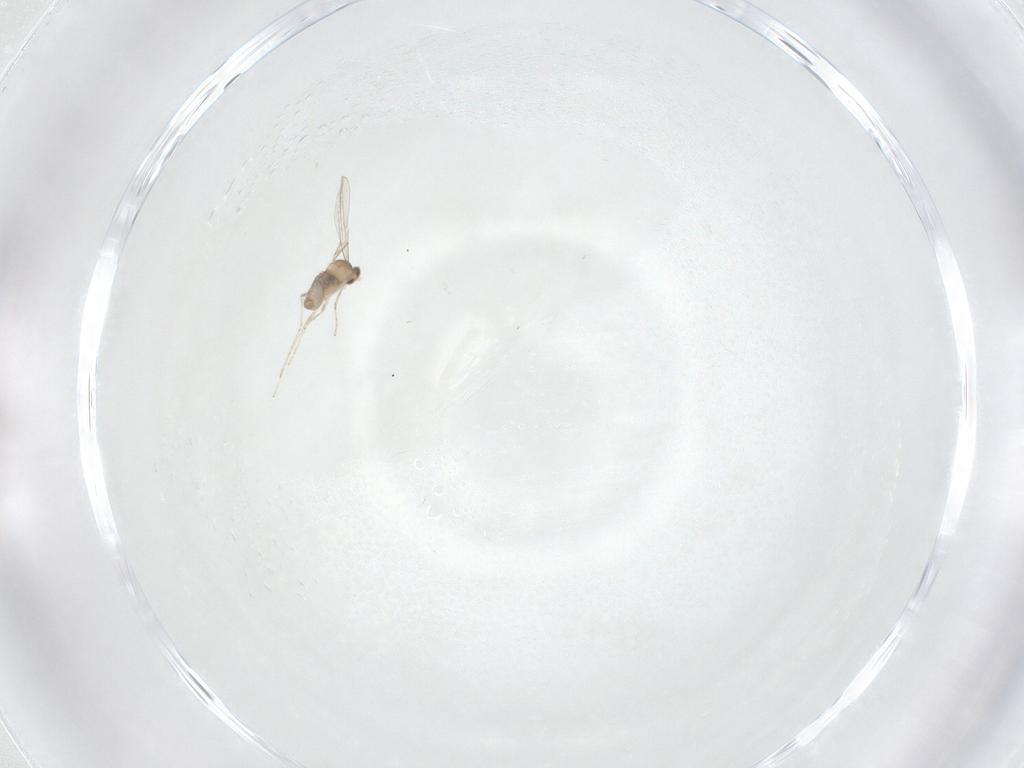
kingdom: Animalia
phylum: Arthropoda
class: Insecta
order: Diptera
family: Cecidomyiidae
